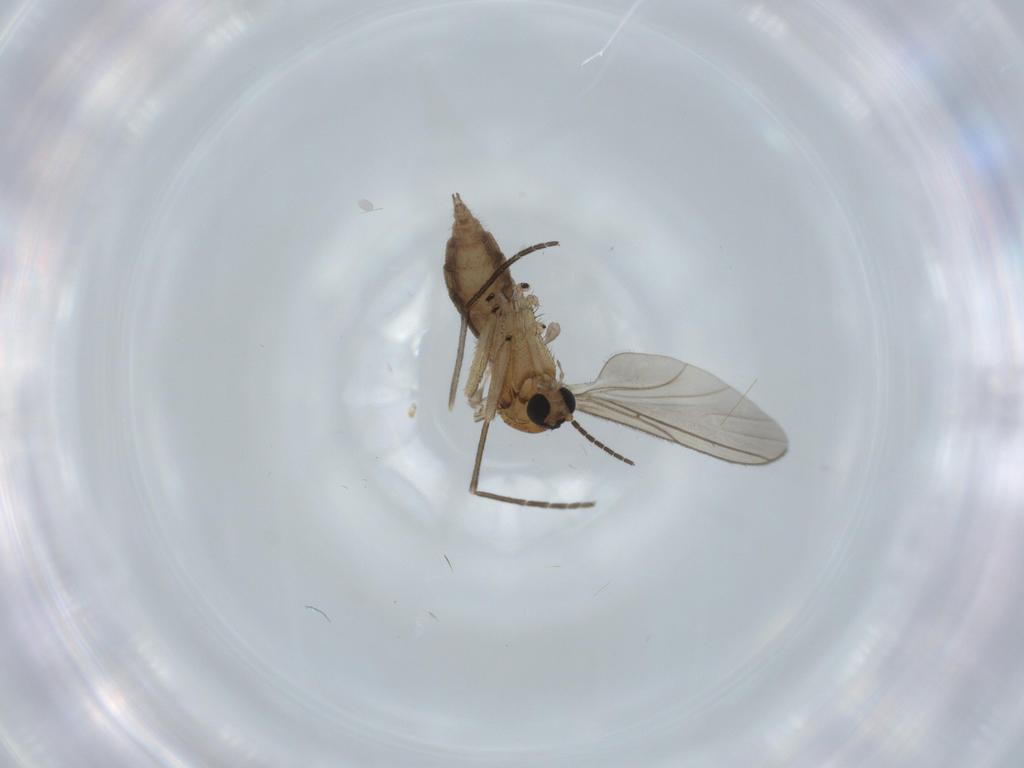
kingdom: Animalia
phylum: Arthropoda
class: Insecta
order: Diptera
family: Sciaridae
